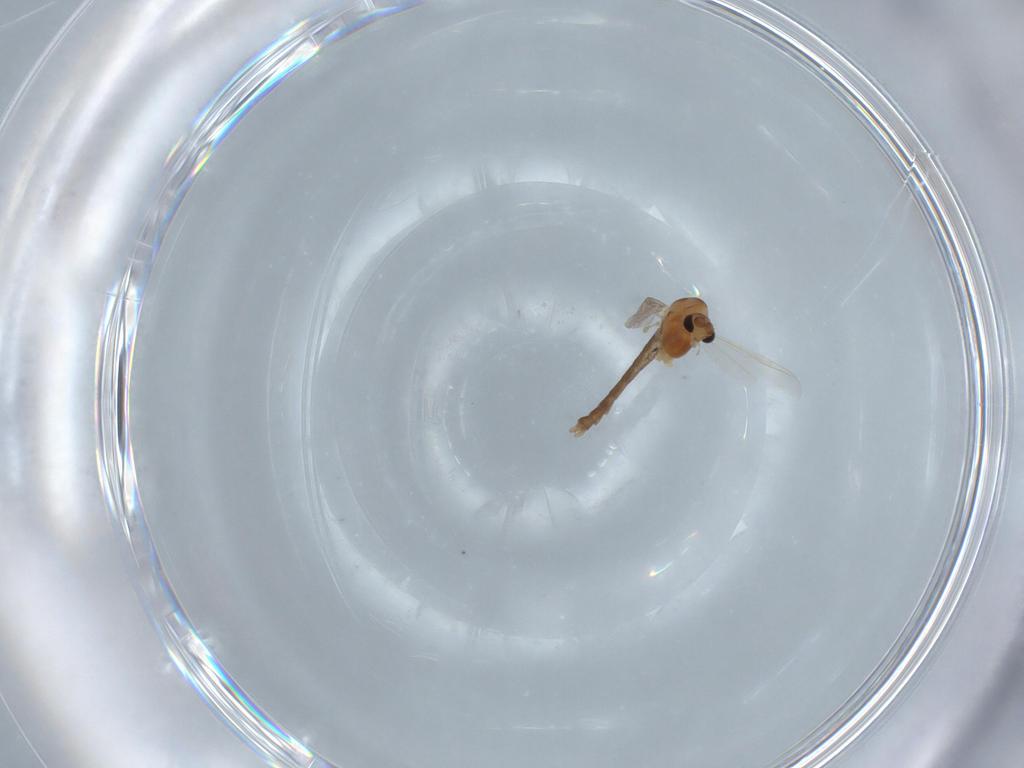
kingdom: Animalia
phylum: Arthropoda
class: Insecta
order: Diptera
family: Chironomidae
